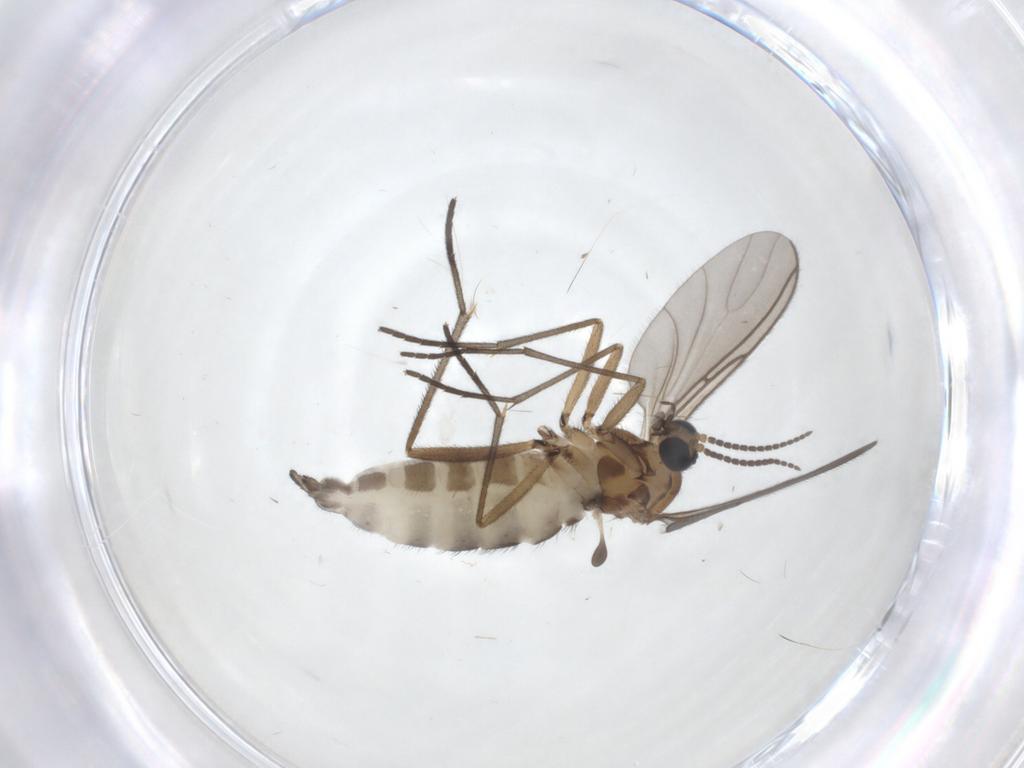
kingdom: Animalia
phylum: Arthropoda
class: Insecta
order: Diptera
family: Sciaridae
